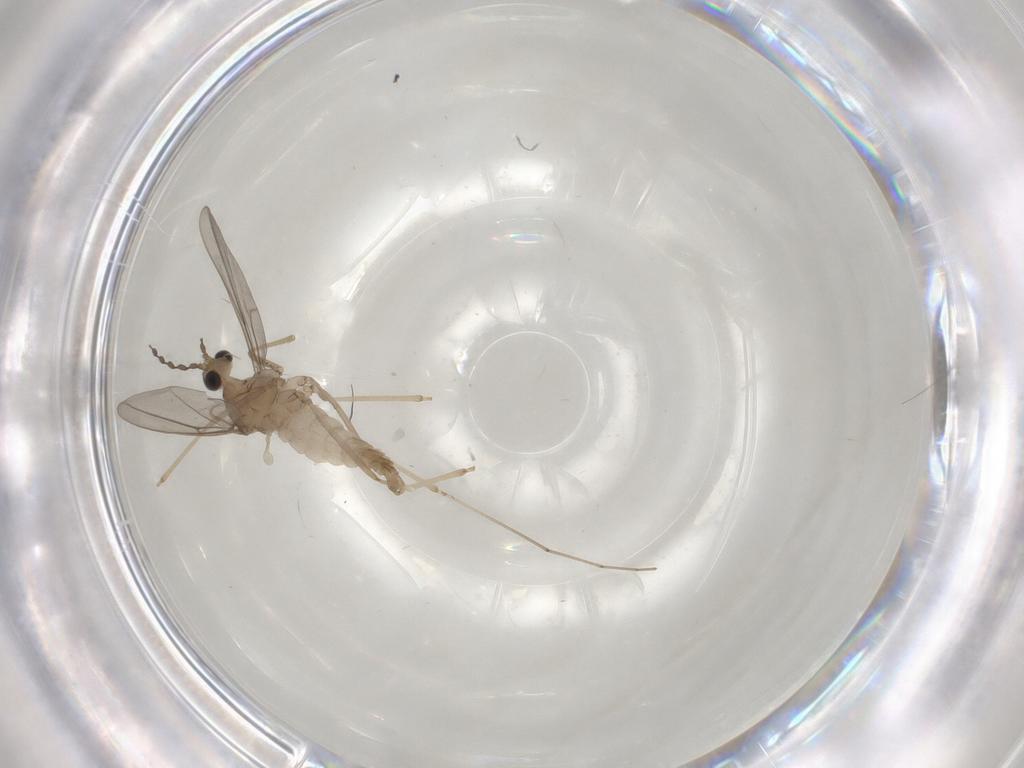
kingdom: Animalia
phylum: Arthropoda
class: Insecta
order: Diptera
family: Cecidomyiidae
